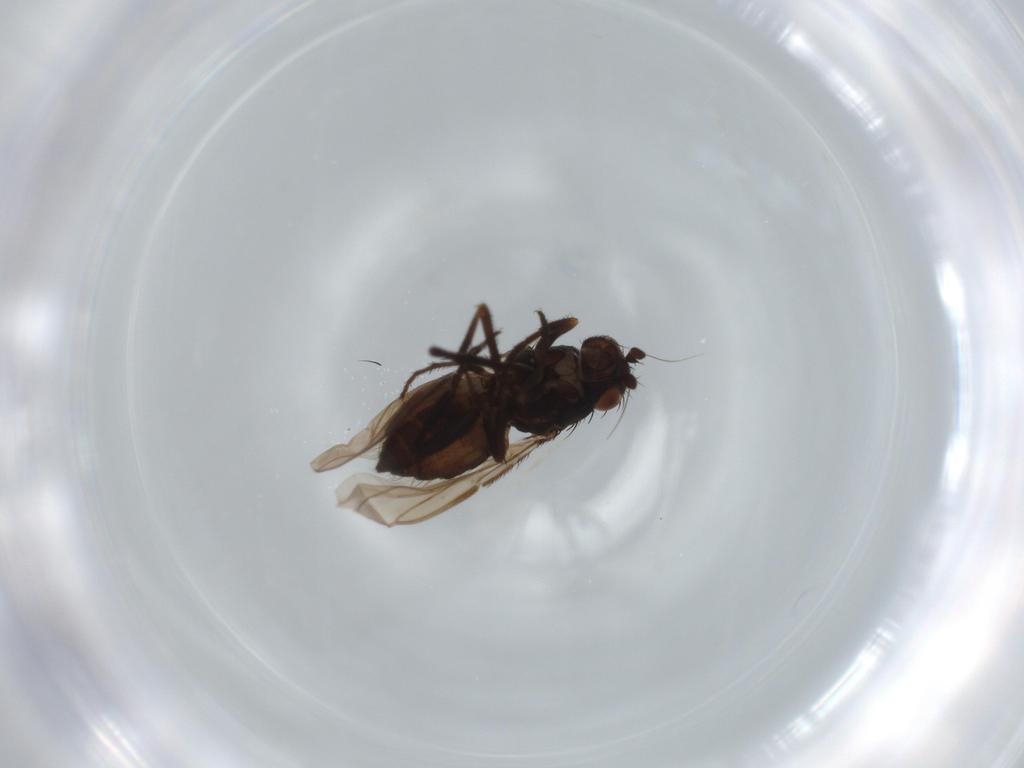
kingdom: Animalia
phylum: Arthropoda
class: Insecta
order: Diptera
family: Sphaeroceridae
